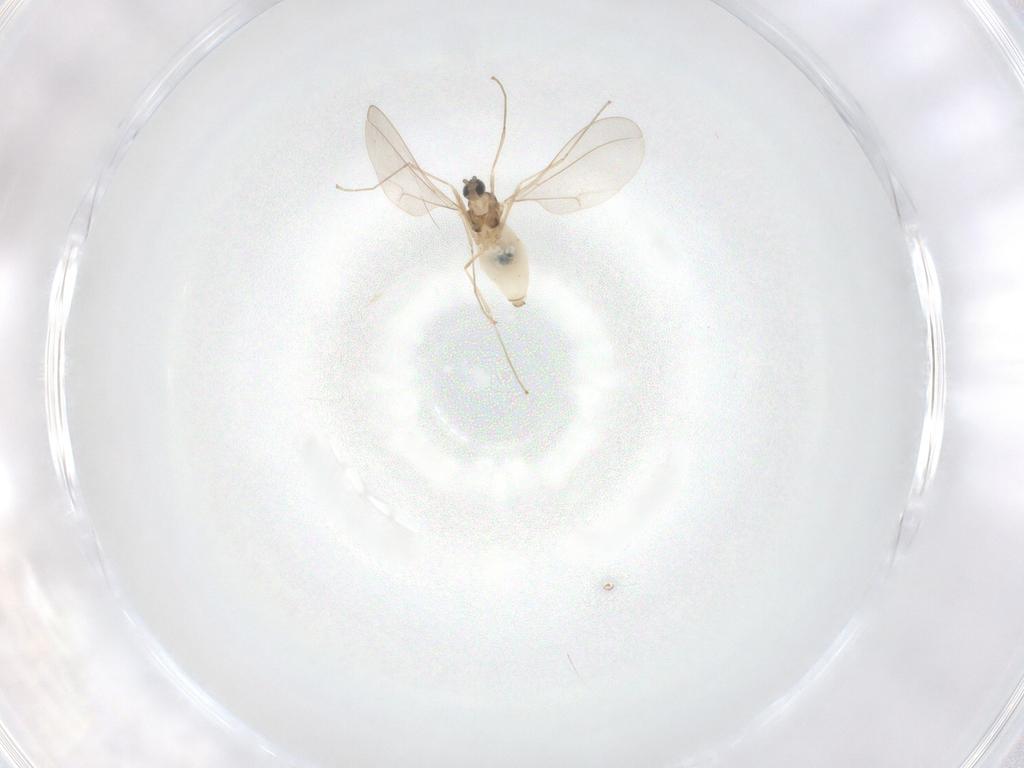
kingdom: Animalia
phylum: Arthropoda
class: Insecta
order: Diptera
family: Cecidomyiidae
